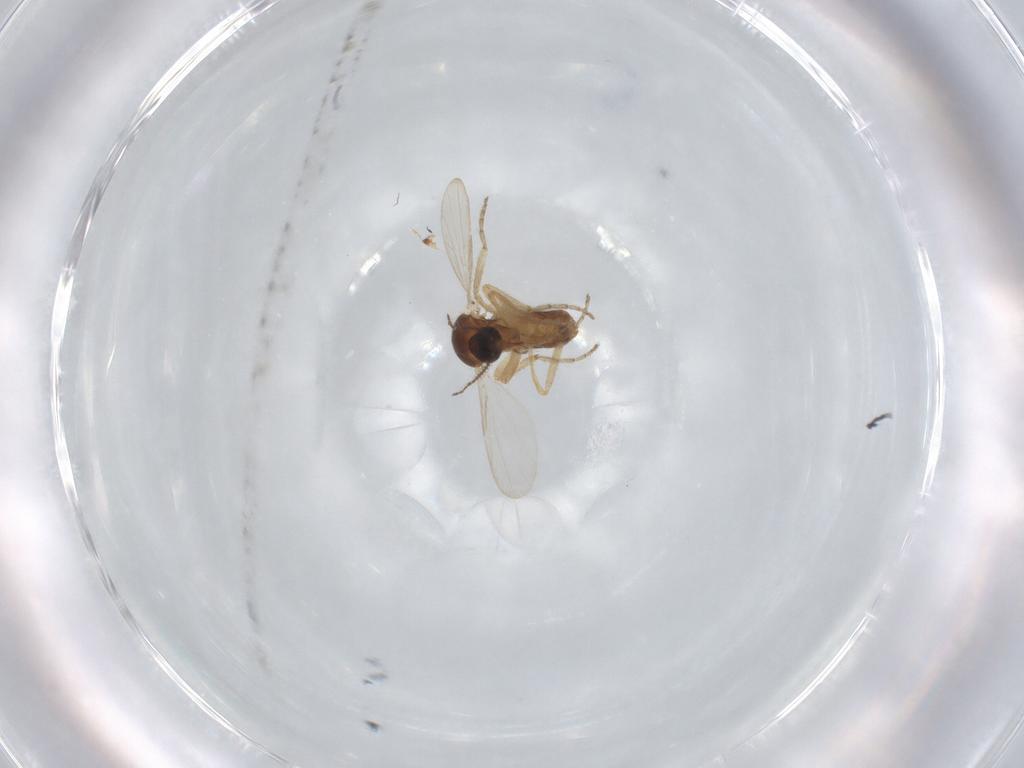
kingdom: Animalia
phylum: Arthropoda
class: Insecta
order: Diptera
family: Ceratopogonidae
